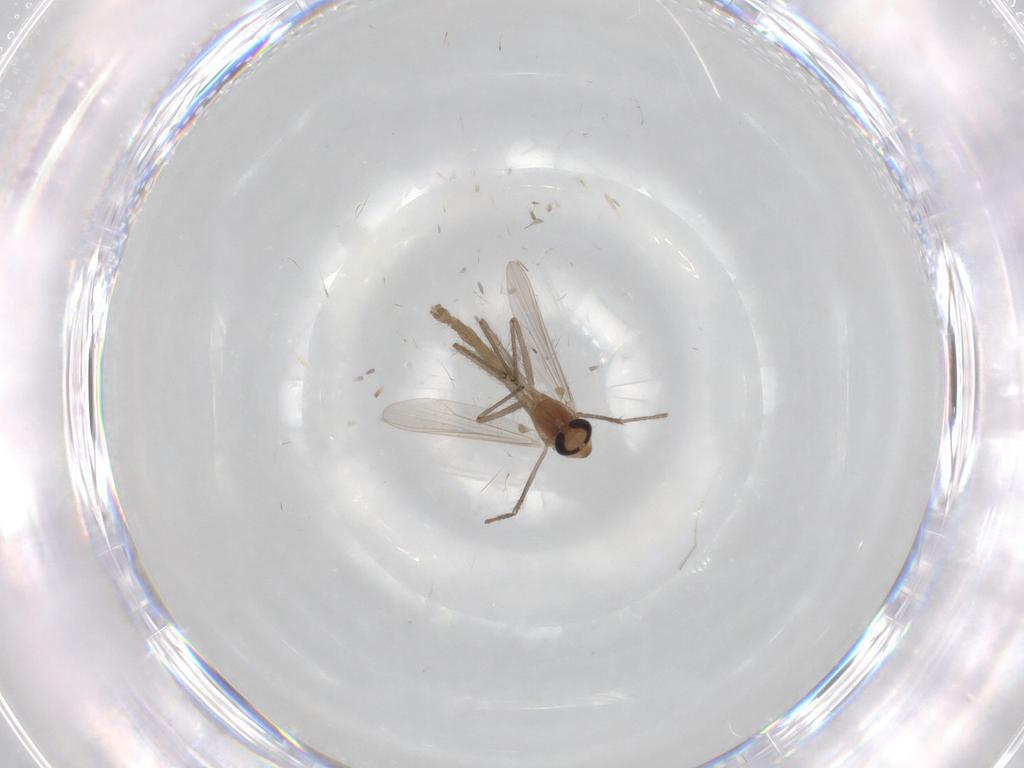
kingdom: Animalia
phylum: Arthropoda
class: Insecta
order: Diptera
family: Chironomidae
